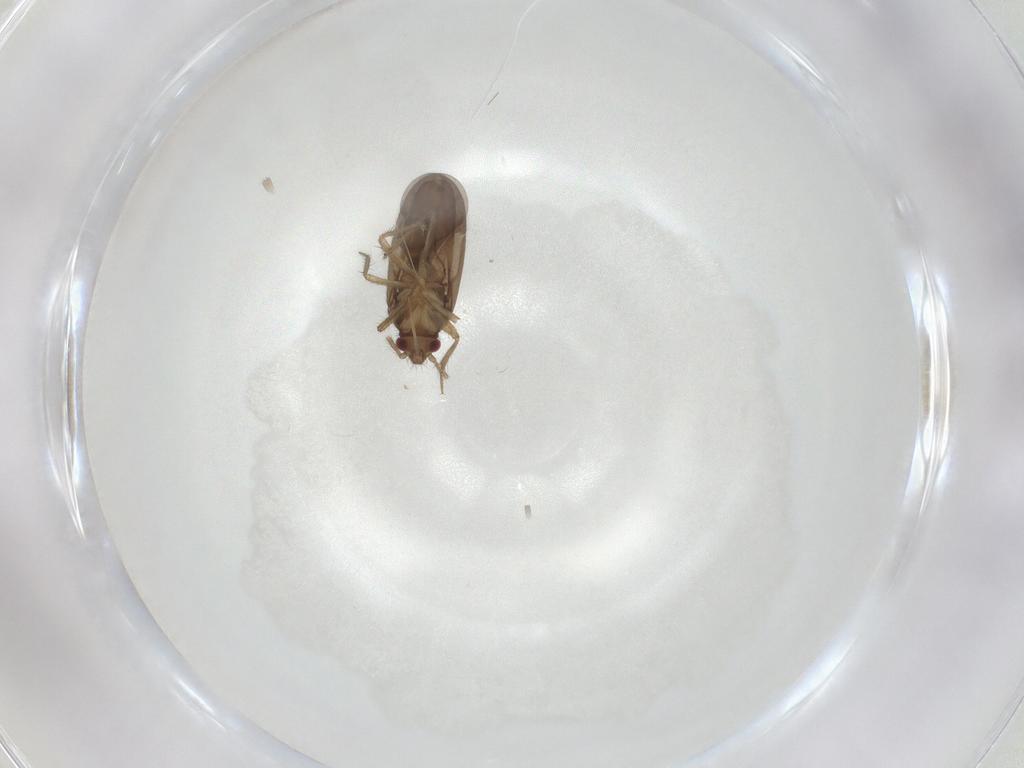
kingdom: Animalia
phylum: Arthropoda
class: Insecta
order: Hemiptera
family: Ceratocombidae
